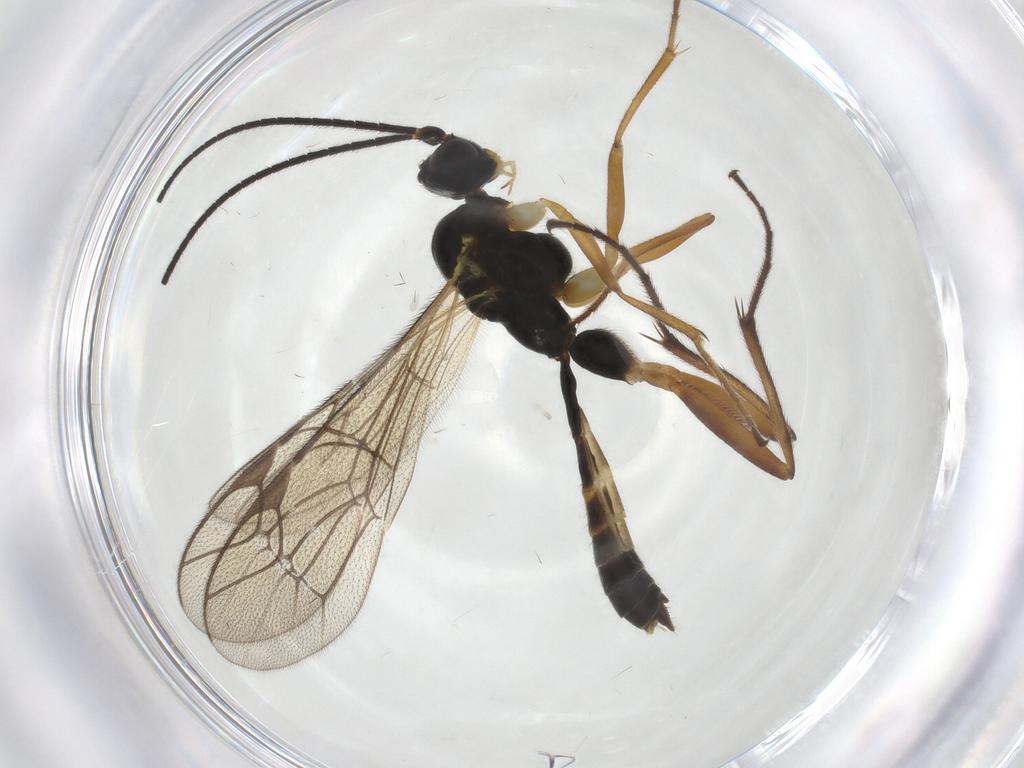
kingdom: Animalia
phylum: Arthropoda
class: Insecta
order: Hymenoptera
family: Ichneumonidae
